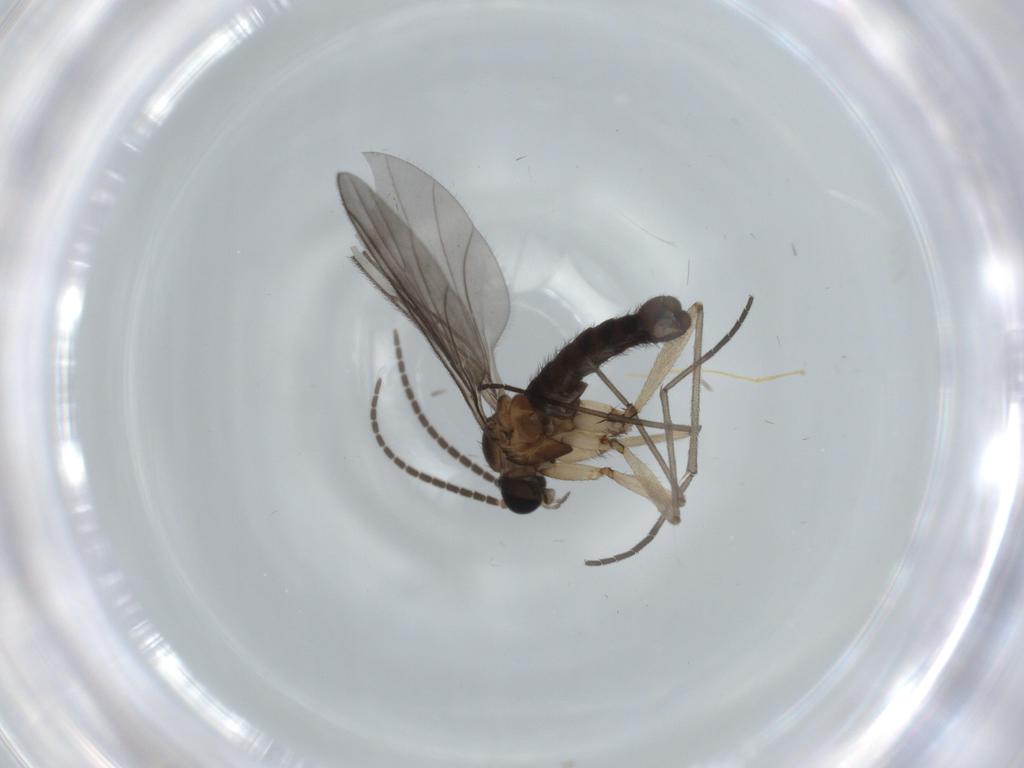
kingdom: Animalia
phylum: Arthropoda
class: Insecta
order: Diptera
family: Sciaridae
